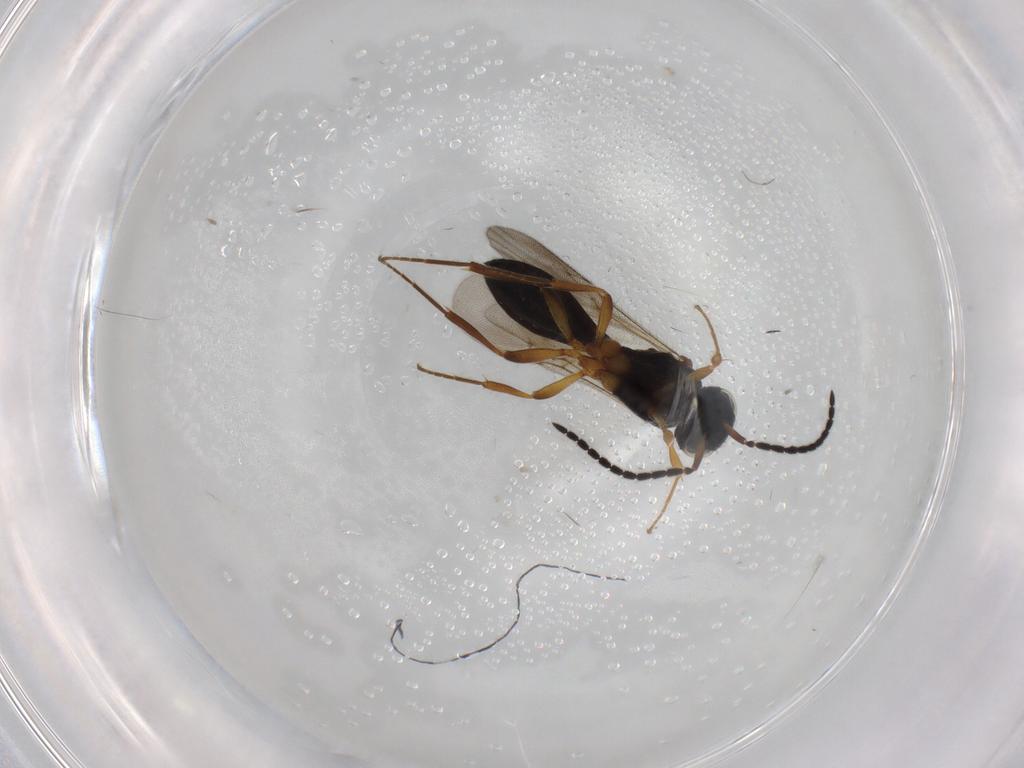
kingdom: Animalia
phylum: Arthropoda
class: Insecta
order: Hymenoptera
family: Scelionidae
